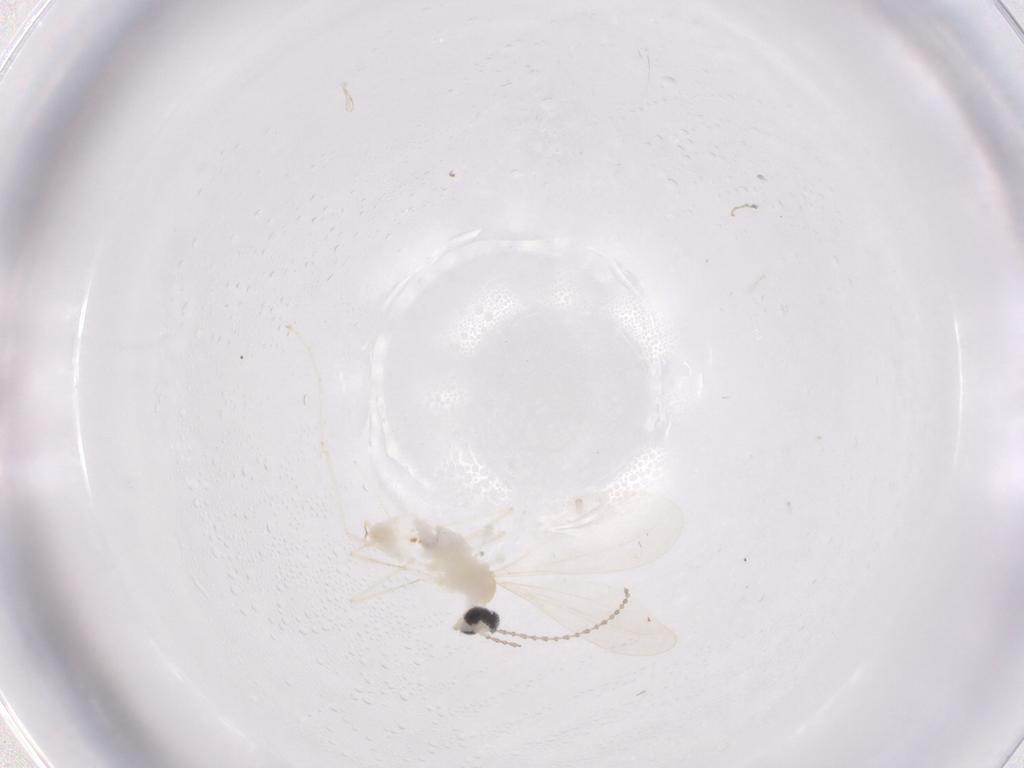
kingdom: Animalia
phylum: Arthropoda
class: Insecta
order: Diptera
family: Cecidomyiidae
